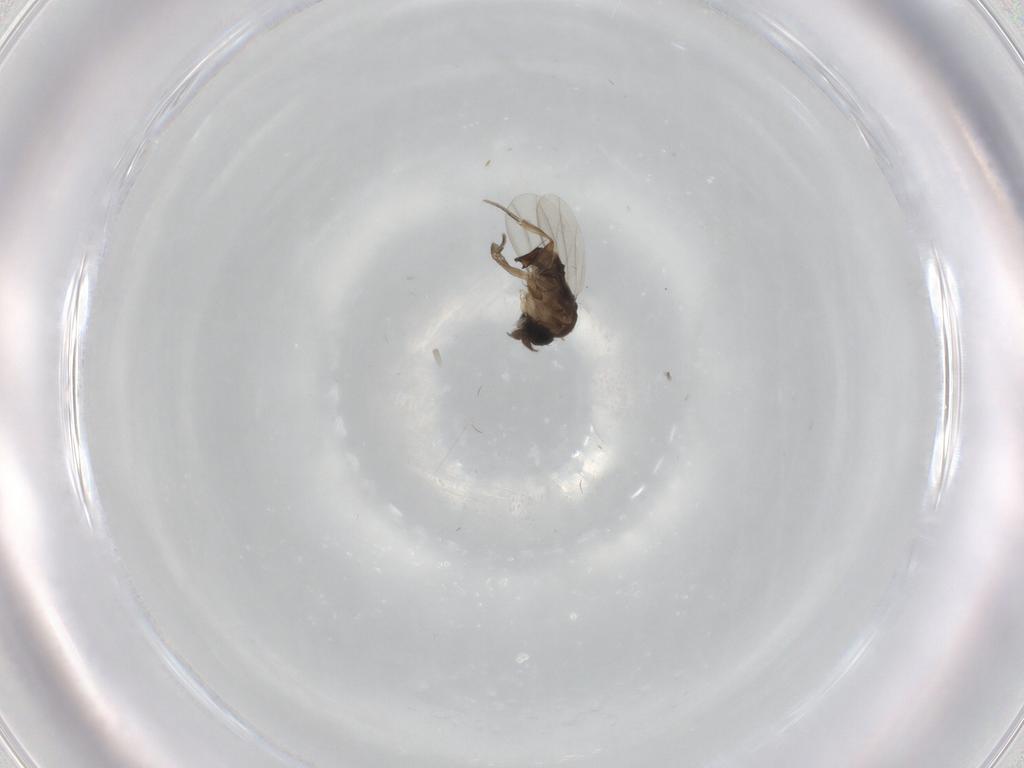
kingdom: Animalia
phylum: Arthropoda
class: Insecta
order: Diptera
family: Phoridae
